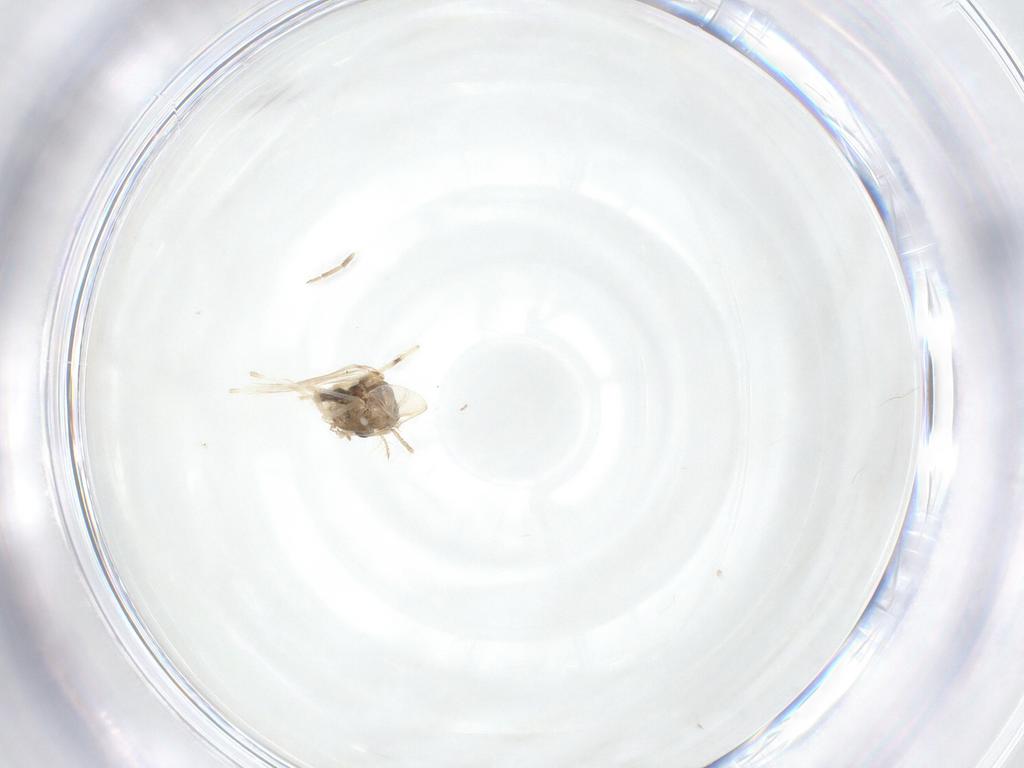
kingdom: Animalia
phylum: Arthropoda
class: Insecta
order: Diptera
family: Chironomidae
